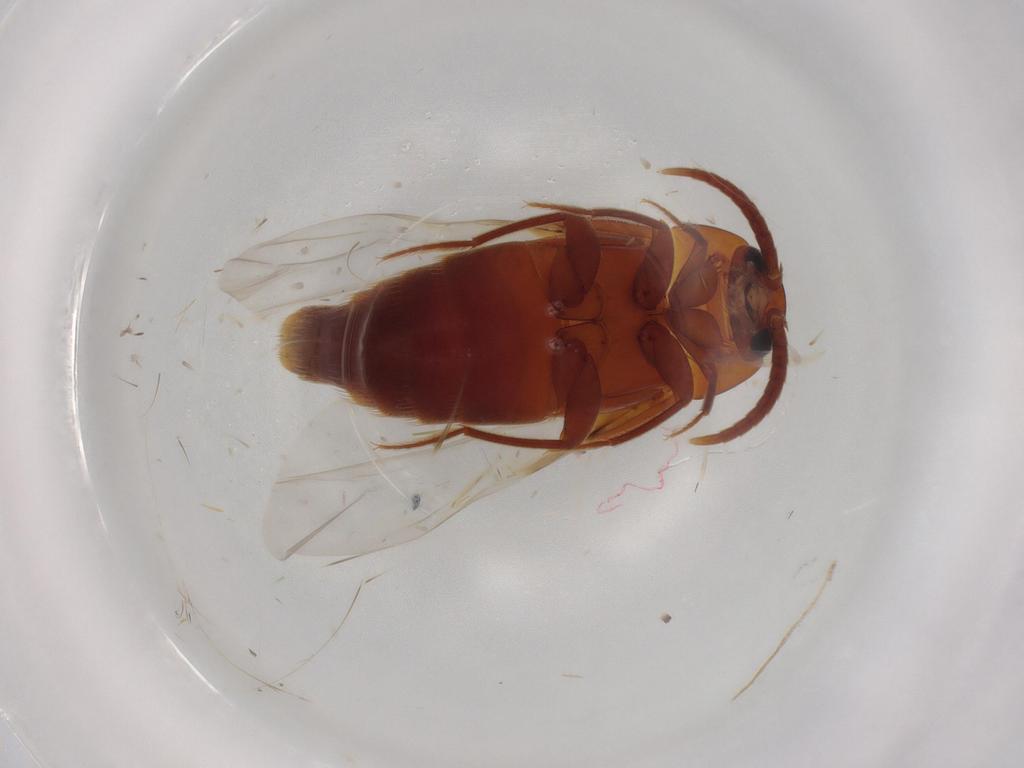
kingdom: Animalia
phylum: Arthropoda
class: Insecta
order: Coleoptera
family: Staphylinidae
